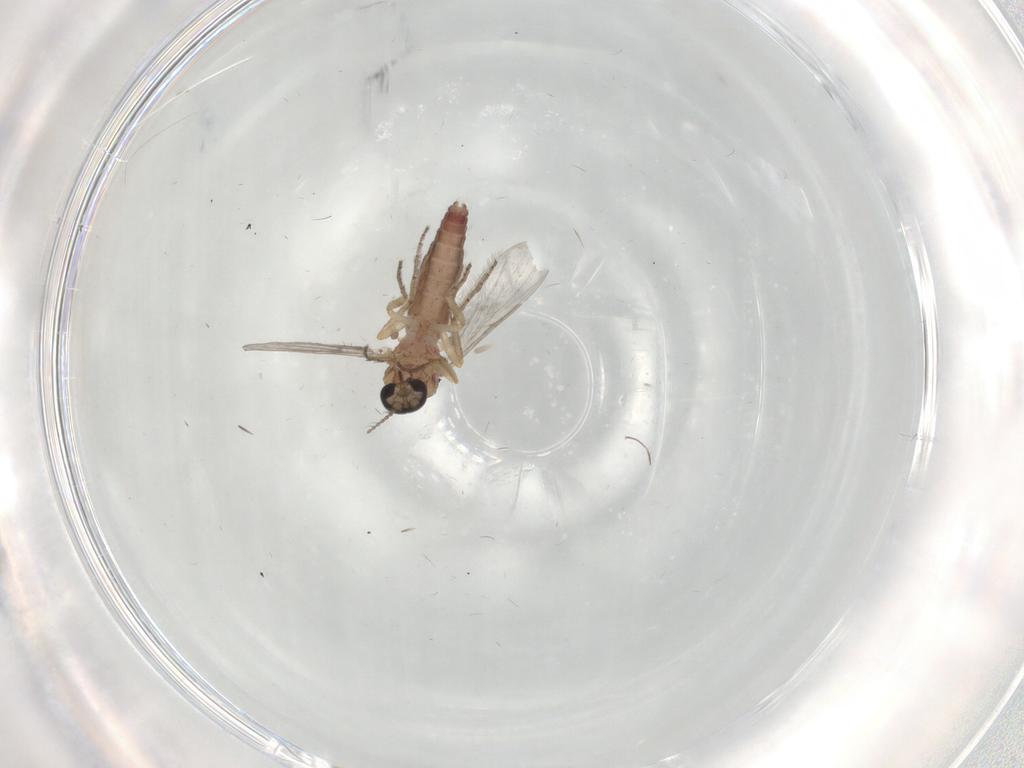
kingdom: Animalia
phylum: Arthropoda
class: Insecta
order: Diptera
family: Ceratopogonidae
